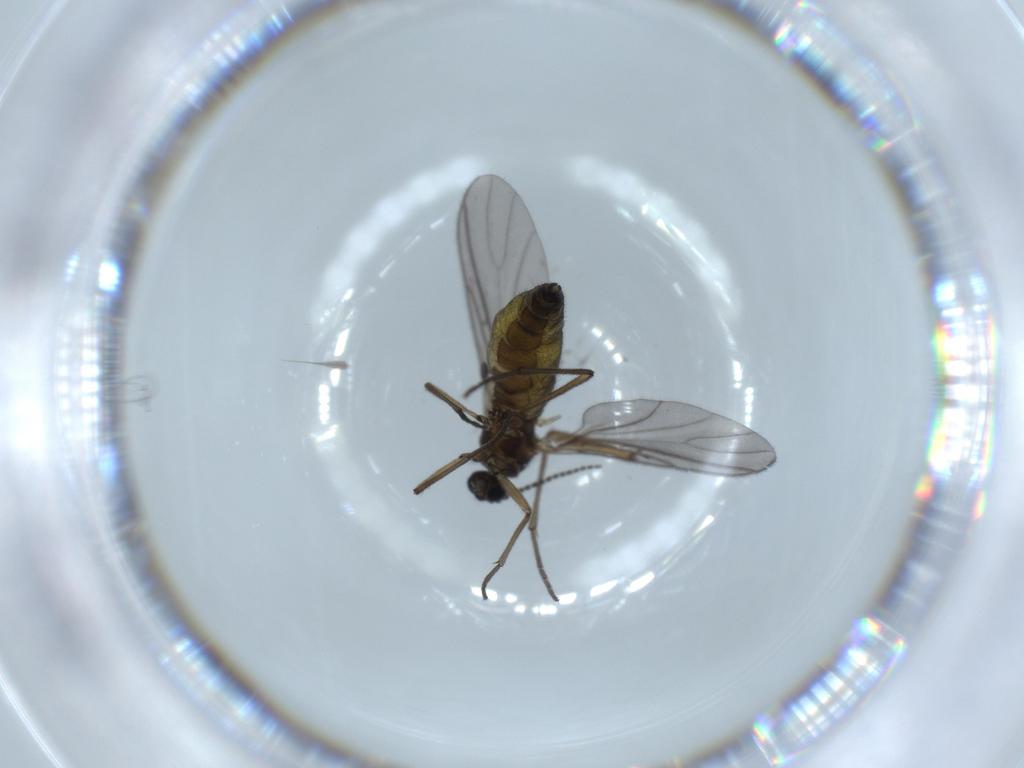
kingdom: Animalia
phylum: Arthropoda
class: Insecta
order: Diptera
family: Sciaridae
